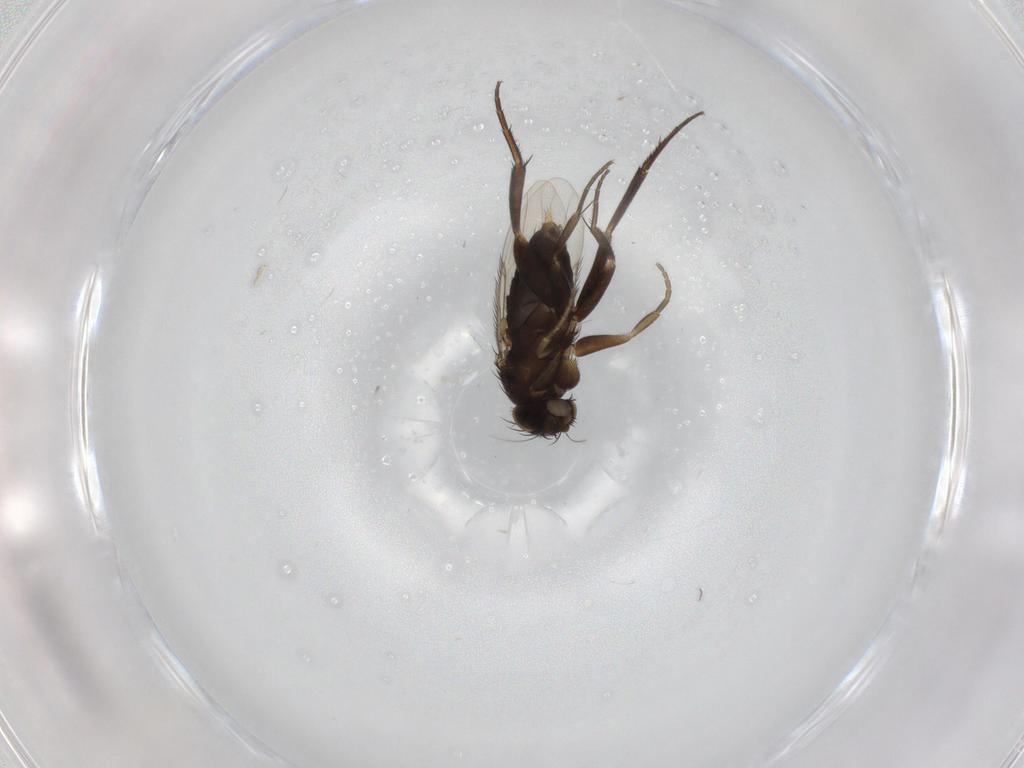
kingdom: Animalia
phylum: Arthropoda
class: Insecta
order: Diptera
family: Phoridae
